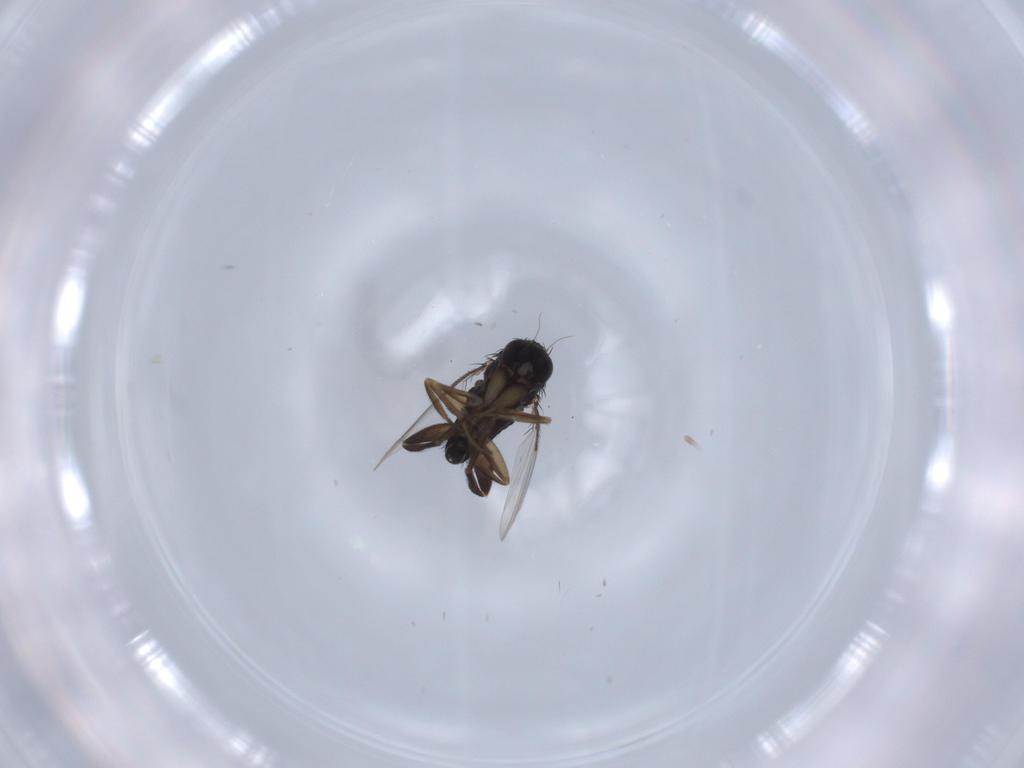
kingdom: Animalia
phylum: Arthropoda
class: Insecta
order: Diptera
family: Phoridae
